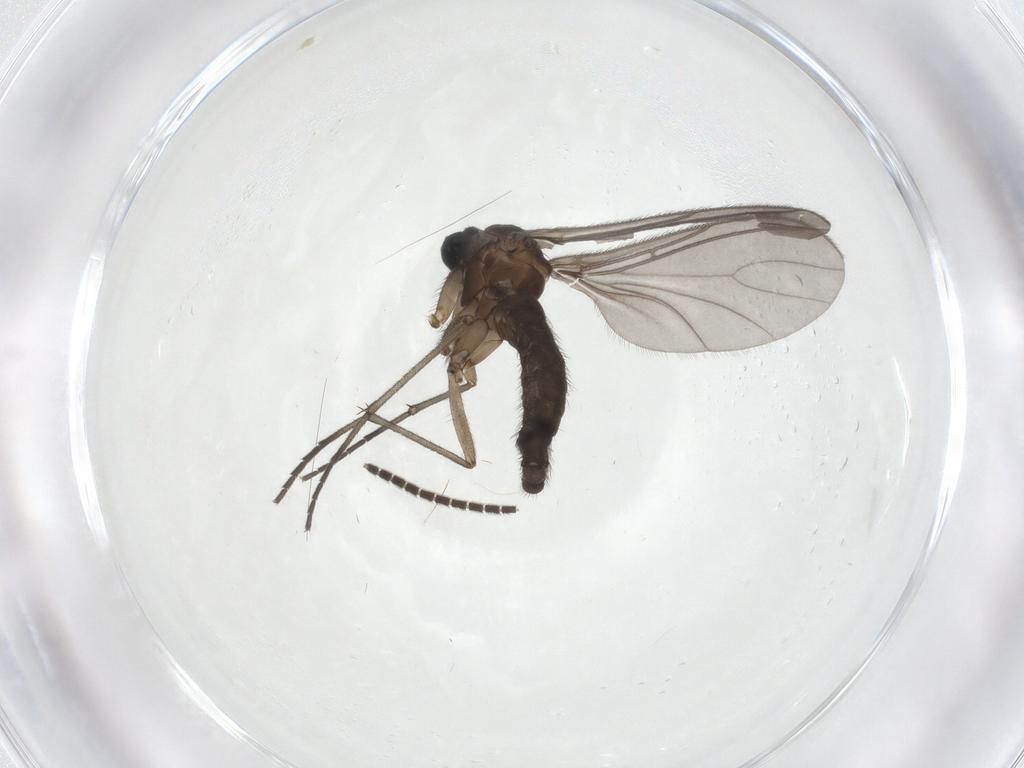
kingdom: Animalia
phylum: Arthropoda
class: Insecta
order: Diptera
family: Sciaridae
